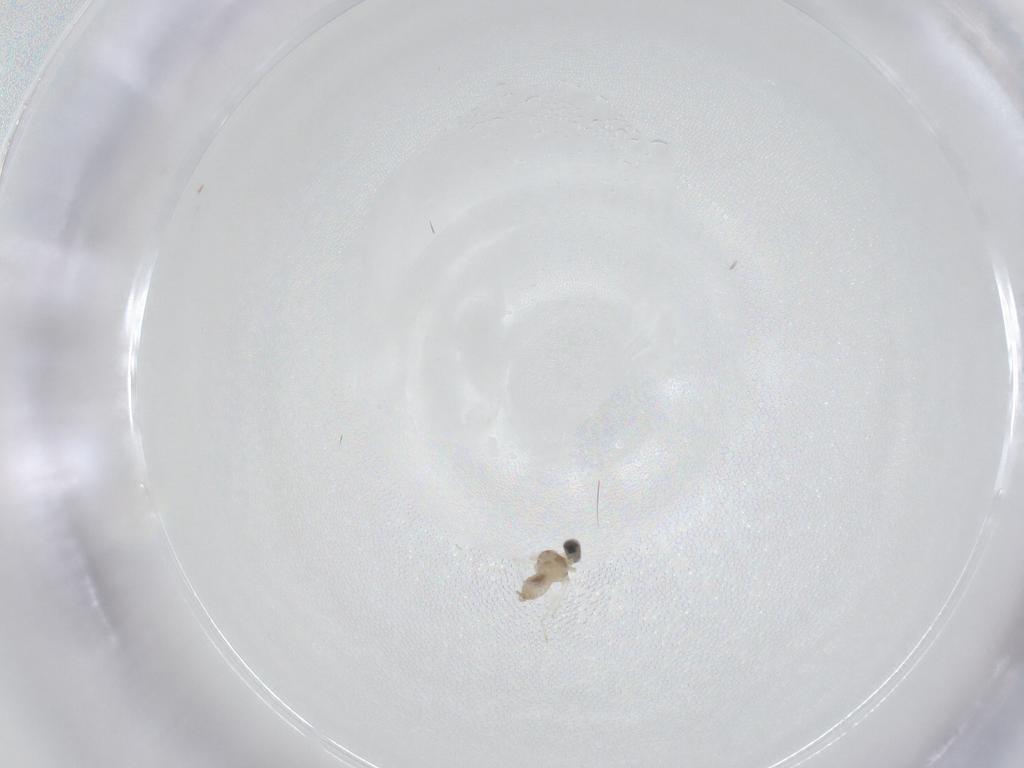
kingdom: Animalia
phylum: Arthropoda
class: Insecta
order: Diptera
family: Cecidomyiidae
